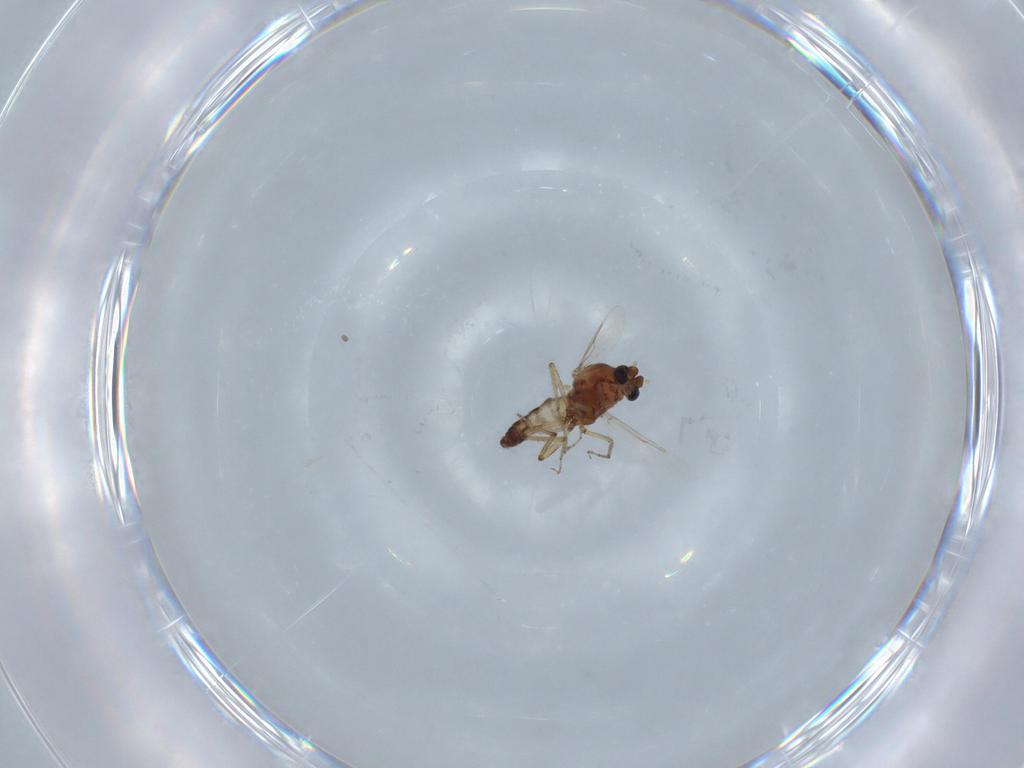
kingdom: Animalia
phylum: Arthropoda
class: Insecta
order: Diptera
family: Ceratopogonidae
